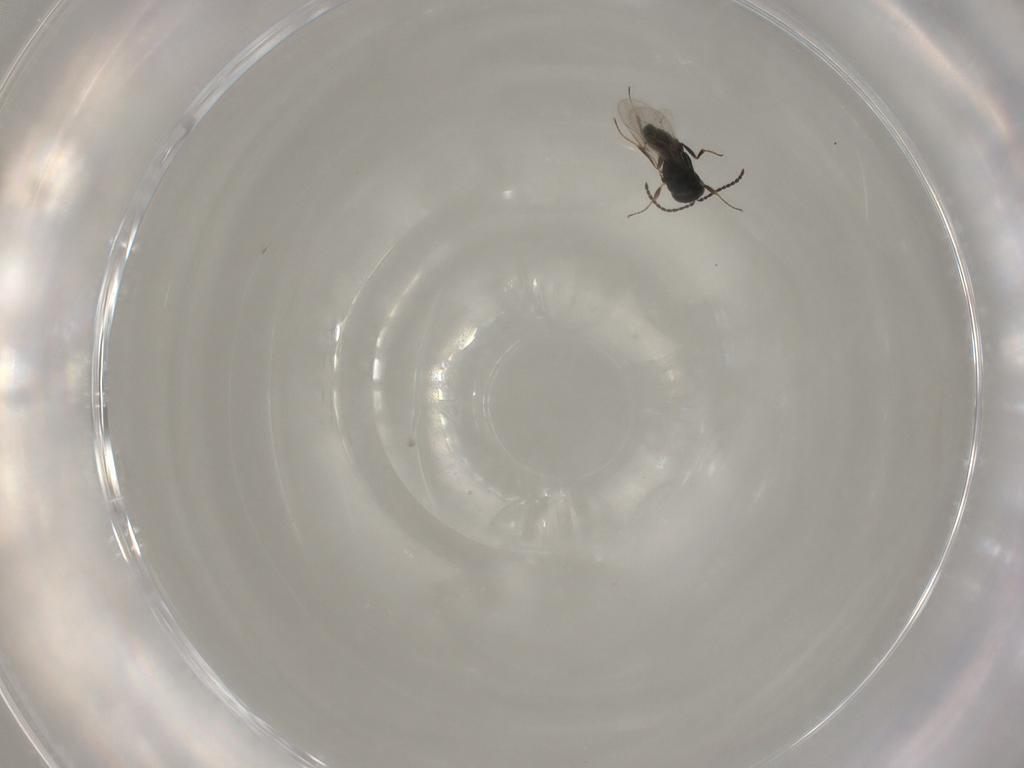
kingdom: Animalia
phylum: Arthropoda
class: Insecta
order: Hymenoptera
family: Scelionidae
